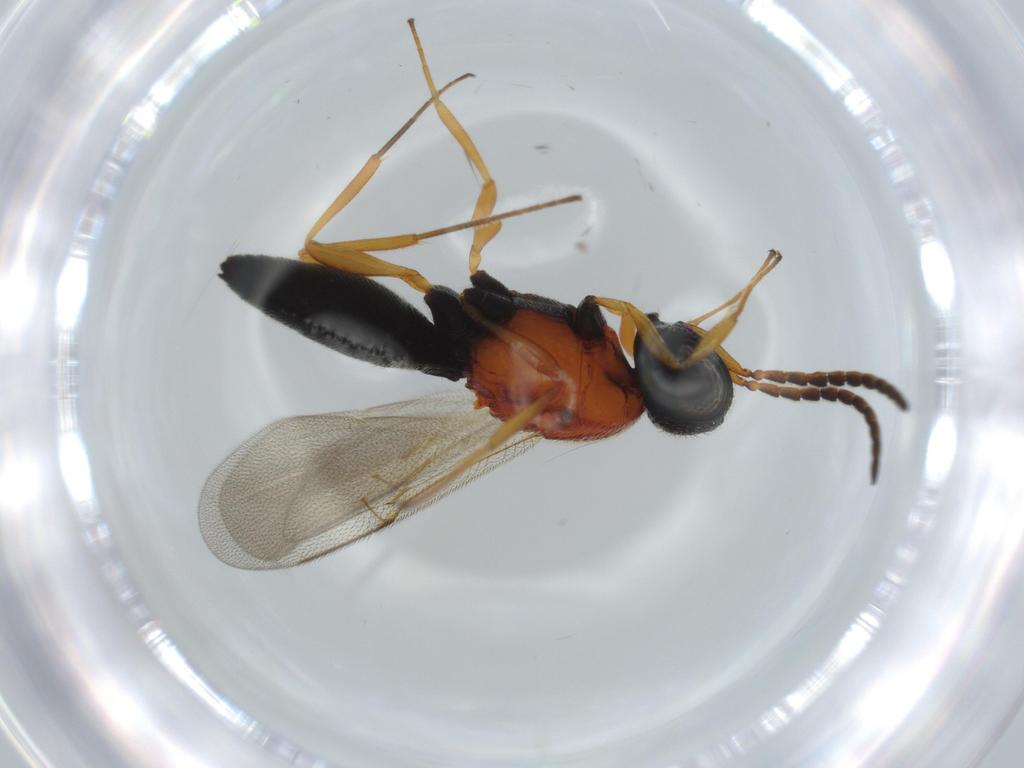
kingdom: Animalia
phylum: Arthropoda
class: Insecta
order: Hymenoptera
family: Scelionidae
